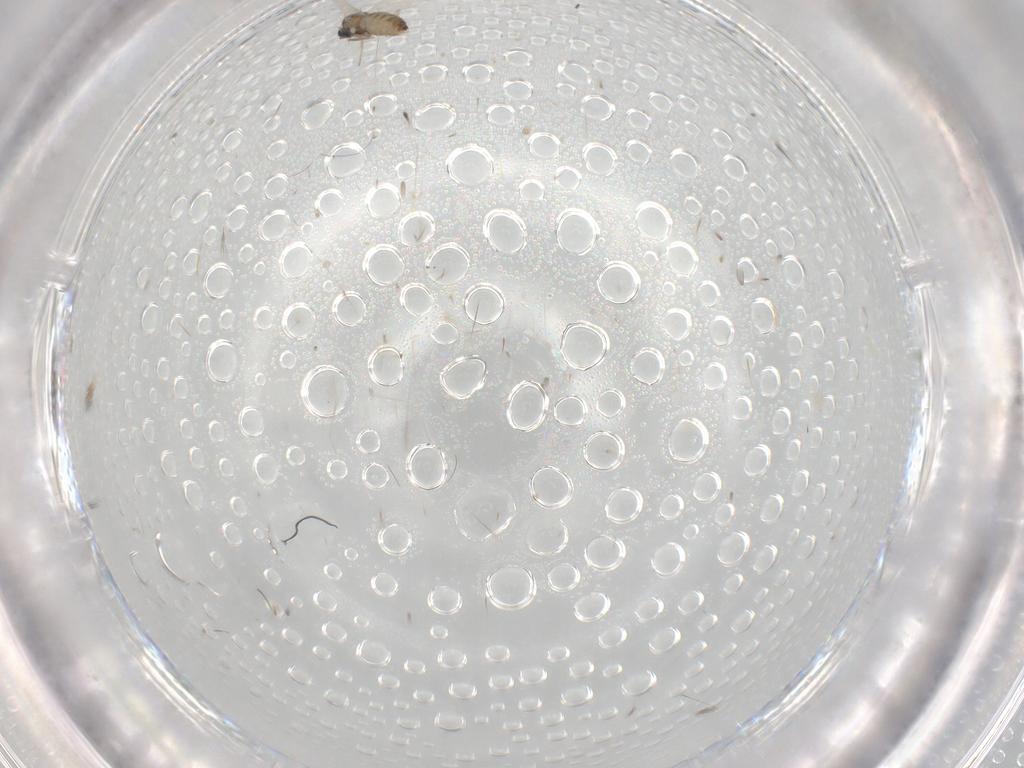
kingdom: Animalia
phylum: Arthropoda
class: Insecta
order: Diptera
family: Cecidomyiidae
